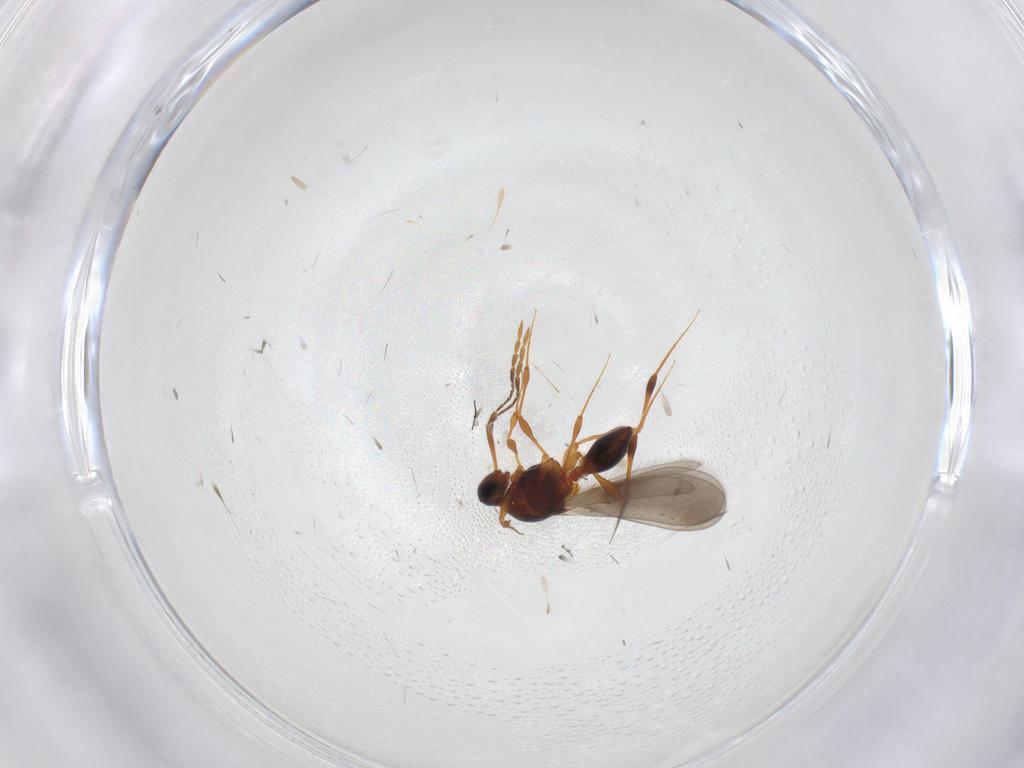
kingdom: Animalia
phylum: Arthropoda
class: Insecta
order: Hymenoptera
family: Platygastridae
